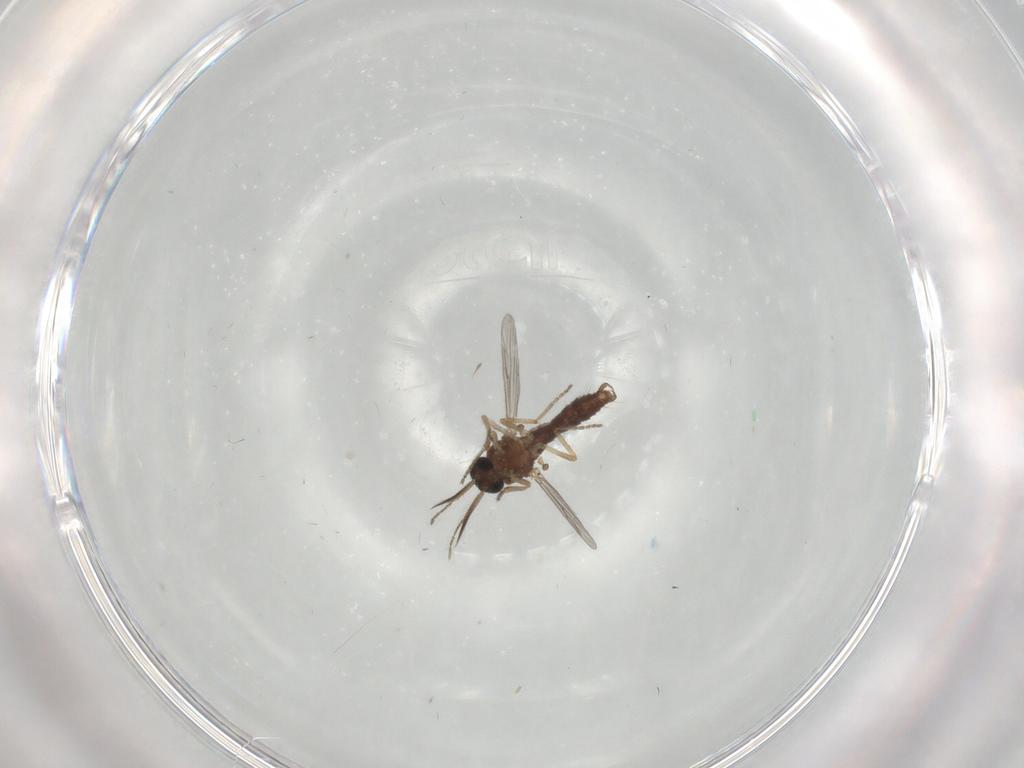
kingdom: Animalia
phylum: Arthropoda
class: Insecta
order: Diptera
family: Ceratopogonidae
